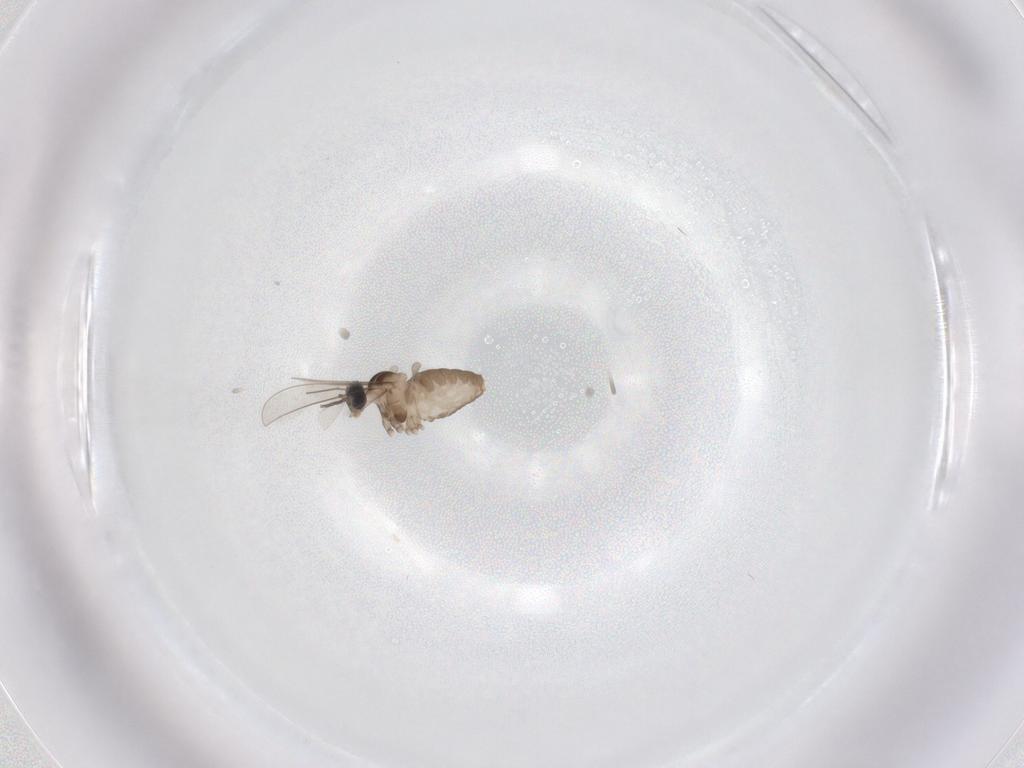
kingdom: Animalia
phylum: Arthropoda
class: Insecta
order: Diptera
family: Cecidomyiidae
